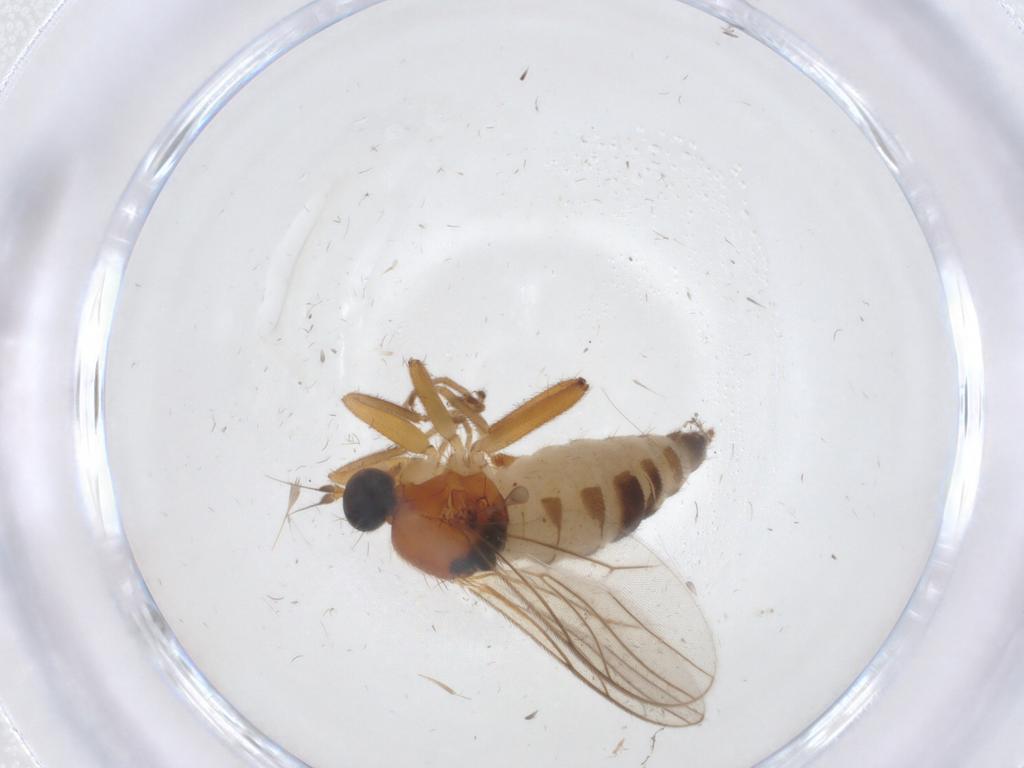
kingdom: Animalia
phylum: Arthropoda
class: Insecta
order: Diptera
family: Hybotidae
